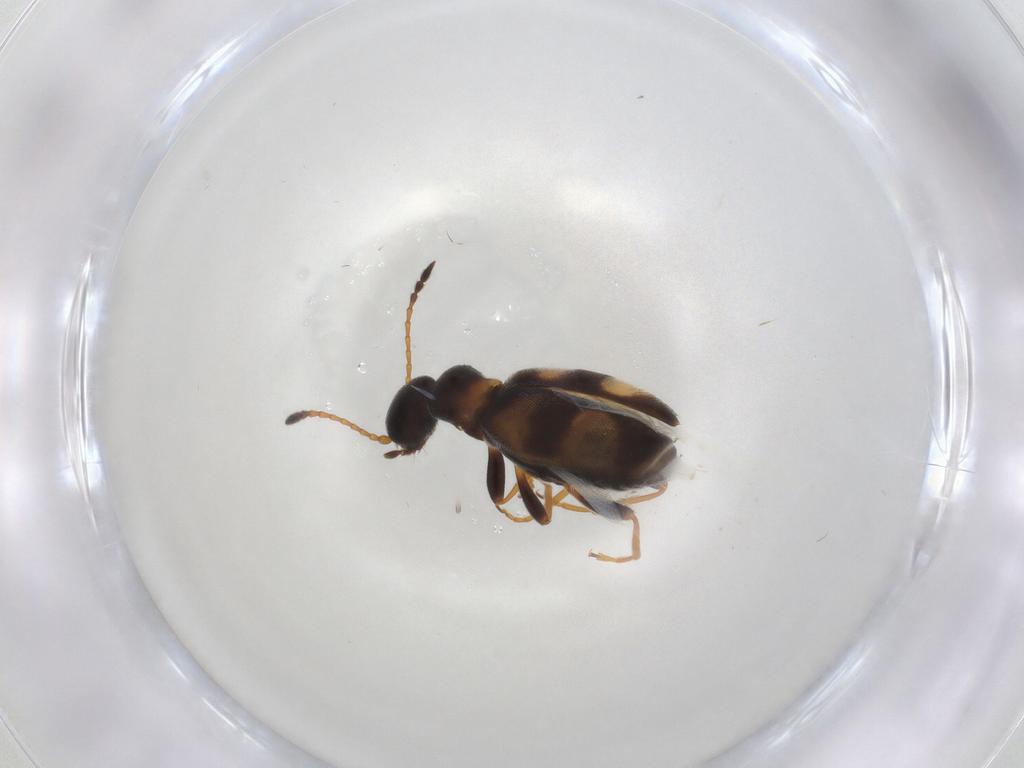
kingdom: Animalia
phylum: Arthropoda
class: Insecta
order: Coleoptera
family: Anthicidae
